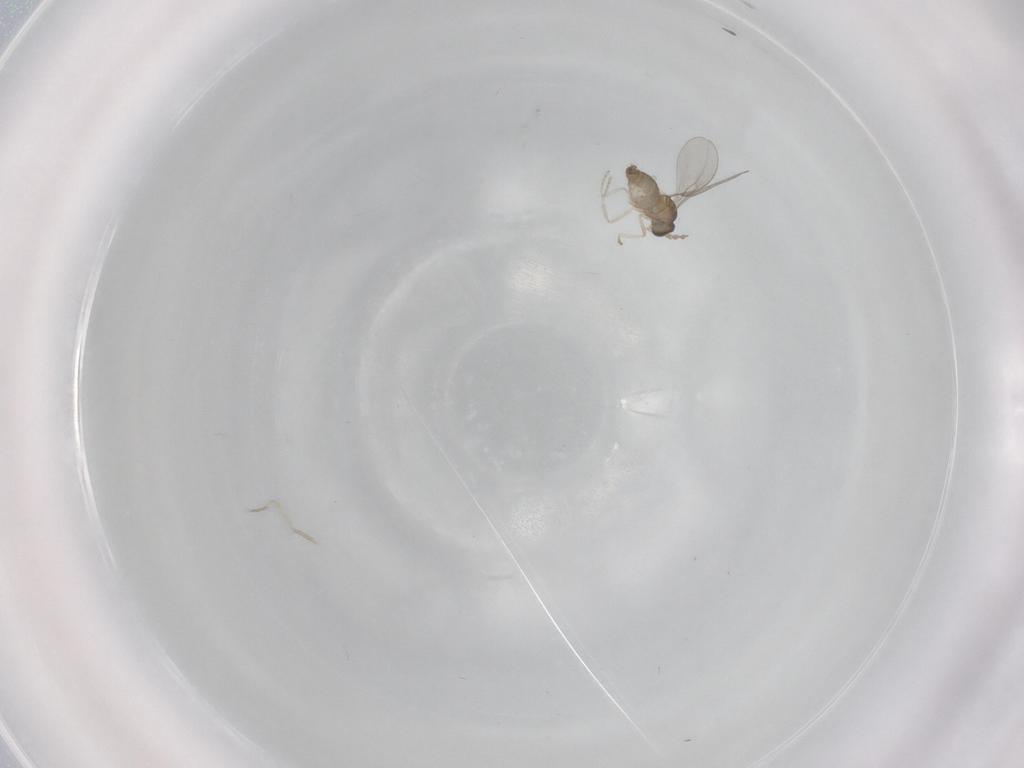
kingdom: Animalia
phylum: Arthropoda
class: Insecta
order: Diptera
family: Cecidomyiidae
